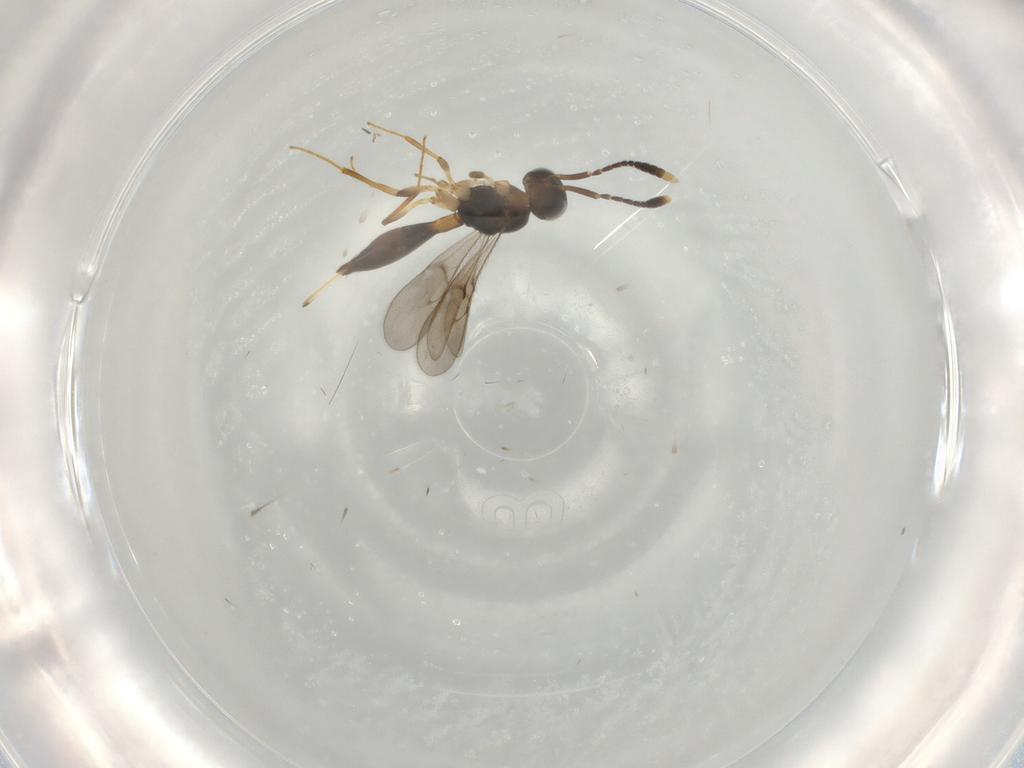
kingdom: Animalia
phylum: Arthropoda
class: Insecta
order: Hymenoptera
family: Scelionidae
